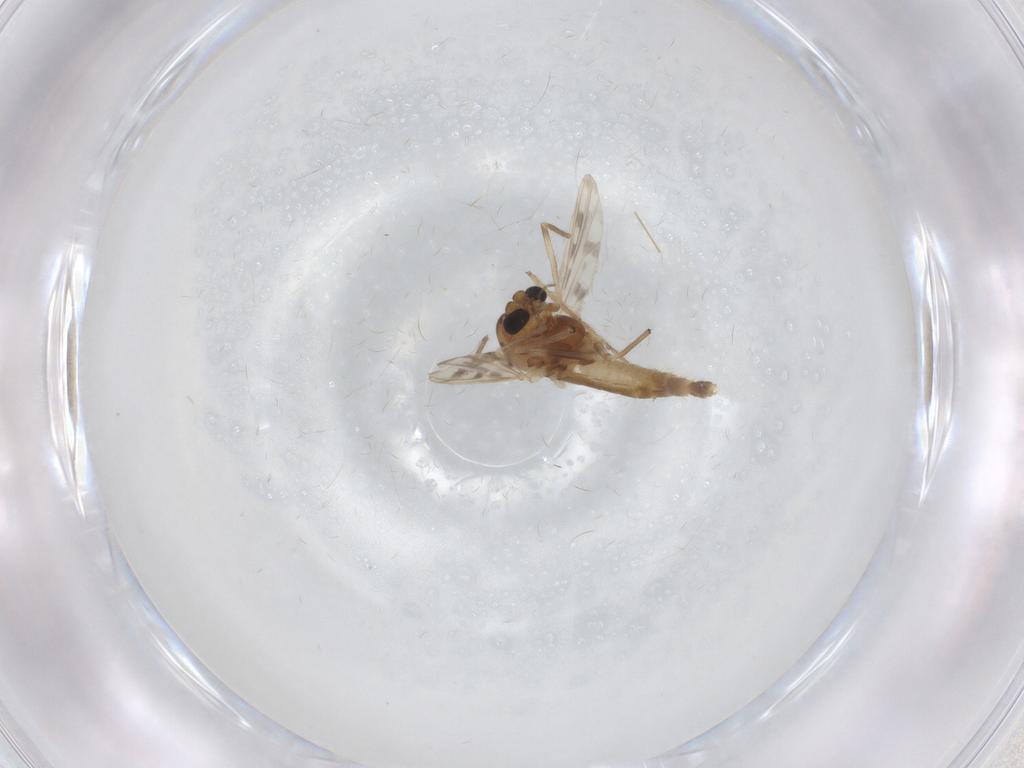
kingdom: Animalia
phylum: Arthropoda
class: Insecta
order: Diptera
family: Chironomidae
